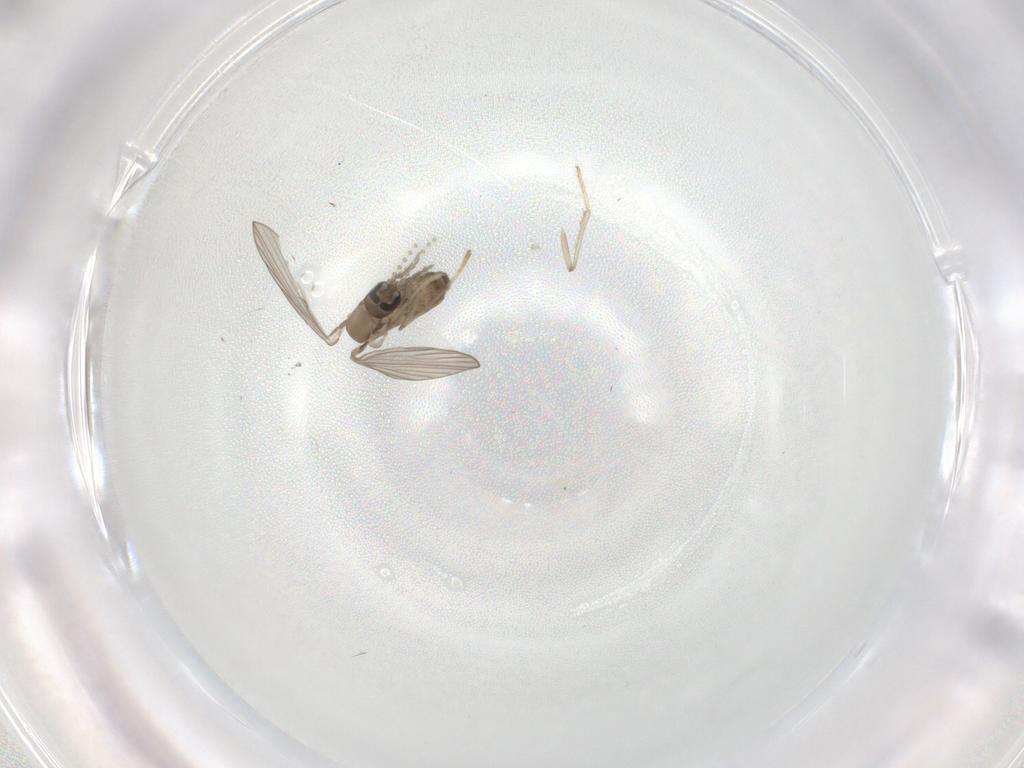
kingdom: Animalia
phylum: Arthropoda
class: Insecta
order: Diptera
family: Psychodidae
